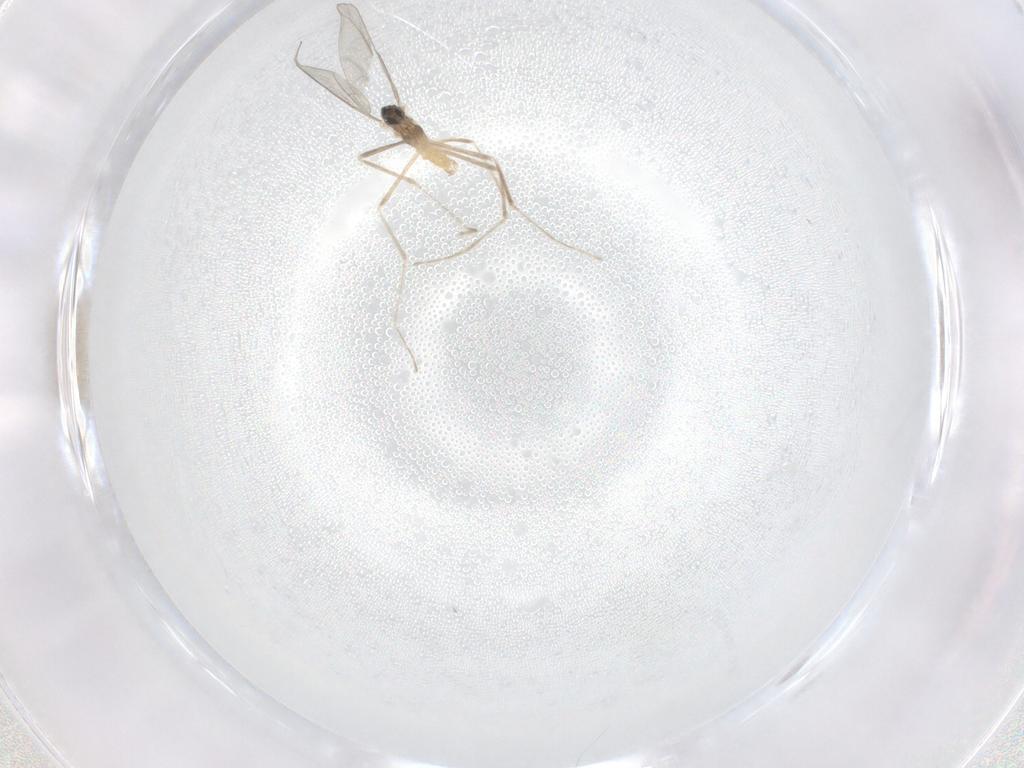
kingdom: Animalia
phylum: Arthropoda
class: Insecta
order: Diptera
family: Cecidomyiidae
